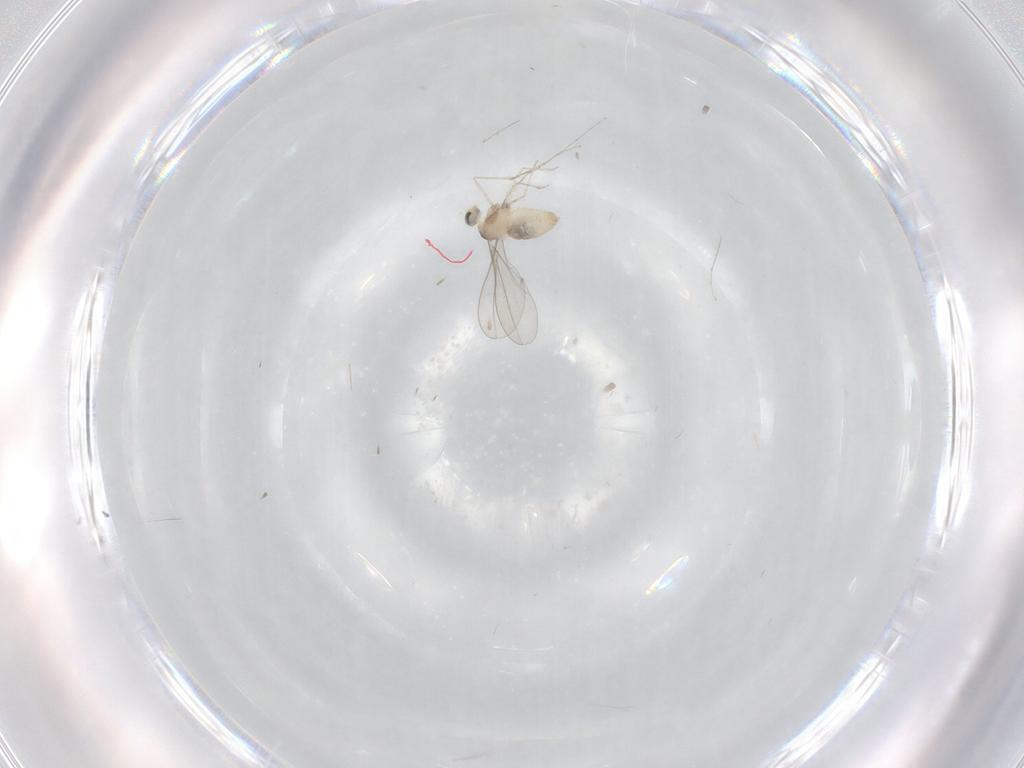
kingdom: Animalia
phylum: Arthropoda
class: Insecta
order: Diptera
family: Cecidomyiidae
